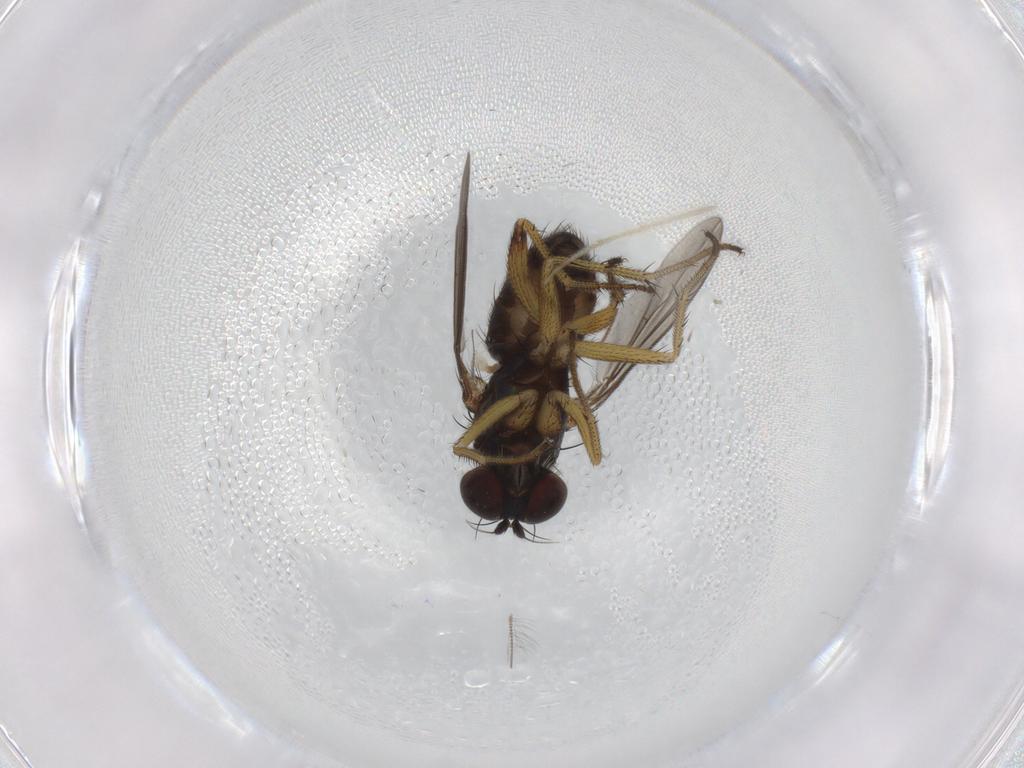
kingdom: Animalia
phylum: Arthropoda
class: Insecta
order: Diptera
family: Dolichopodidae
